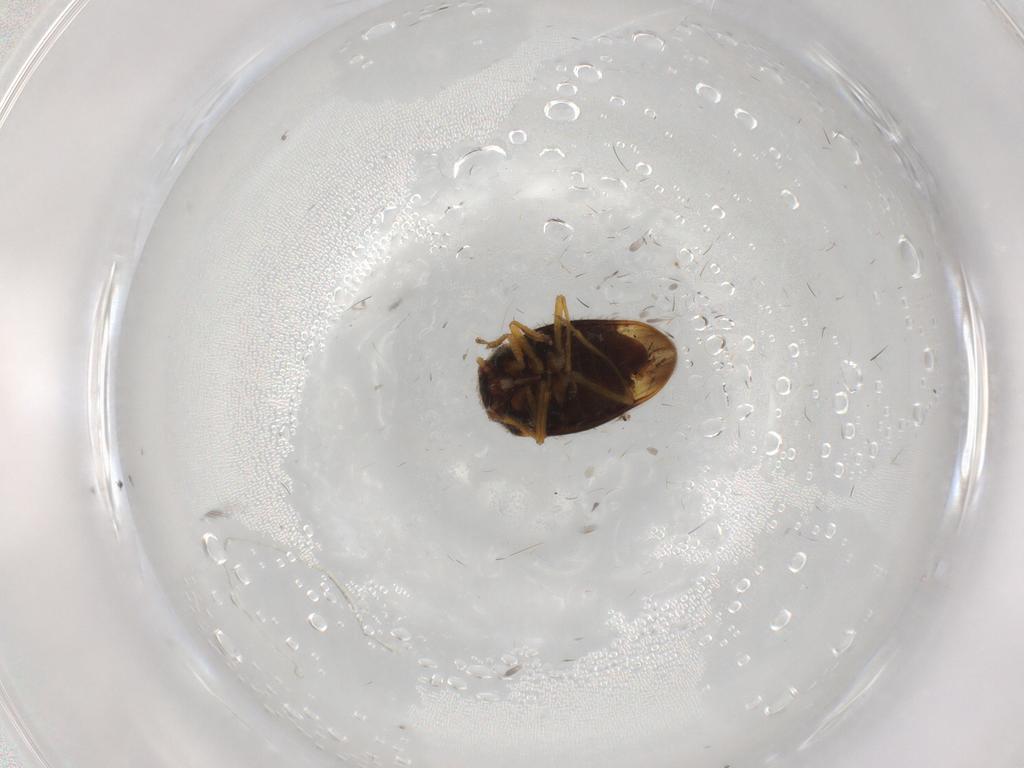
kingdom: Animalia
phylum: Arthropoda
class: Insecta
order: Hemiptera
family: Schizopteridae
